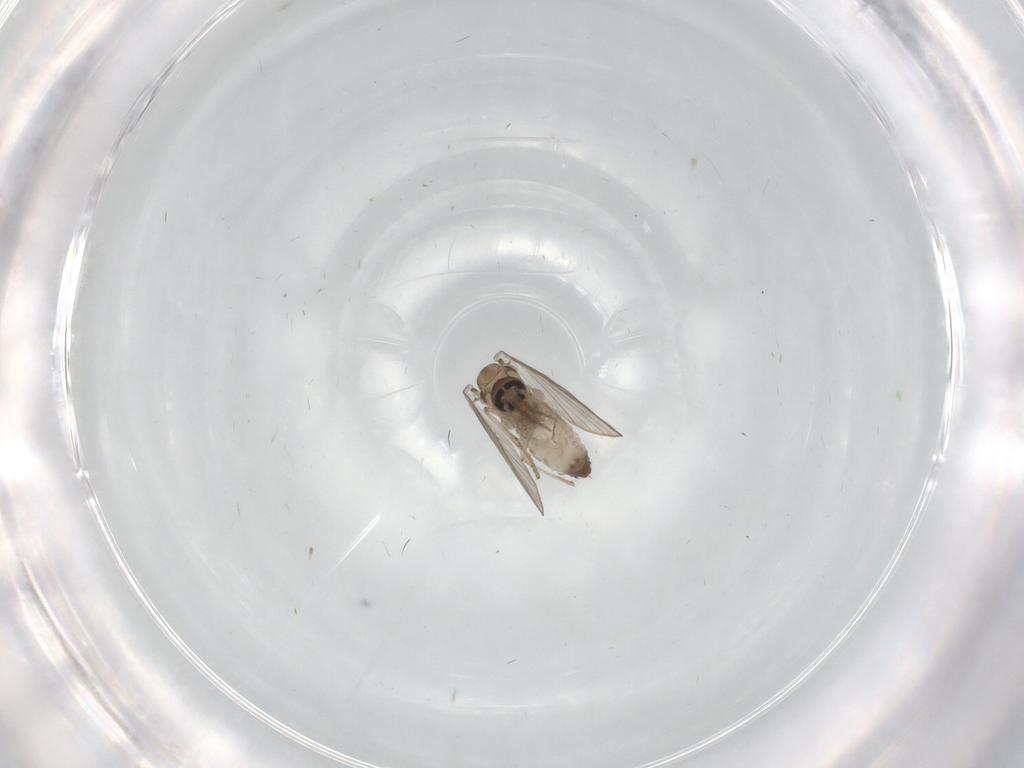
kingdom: Animalia
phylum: Arthropoda
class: Insecta
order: Diptera
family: Psychodidae
